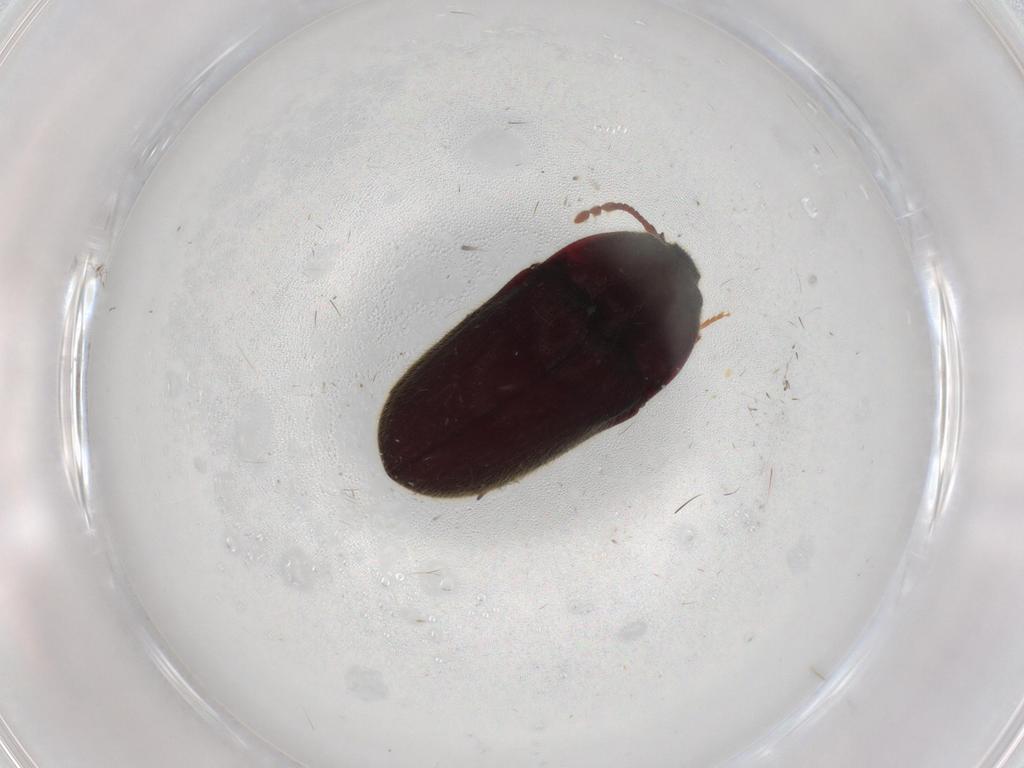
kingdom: Animalia
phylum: Arthropoda
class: Insecta
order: Coleoptera
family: Throscidae
